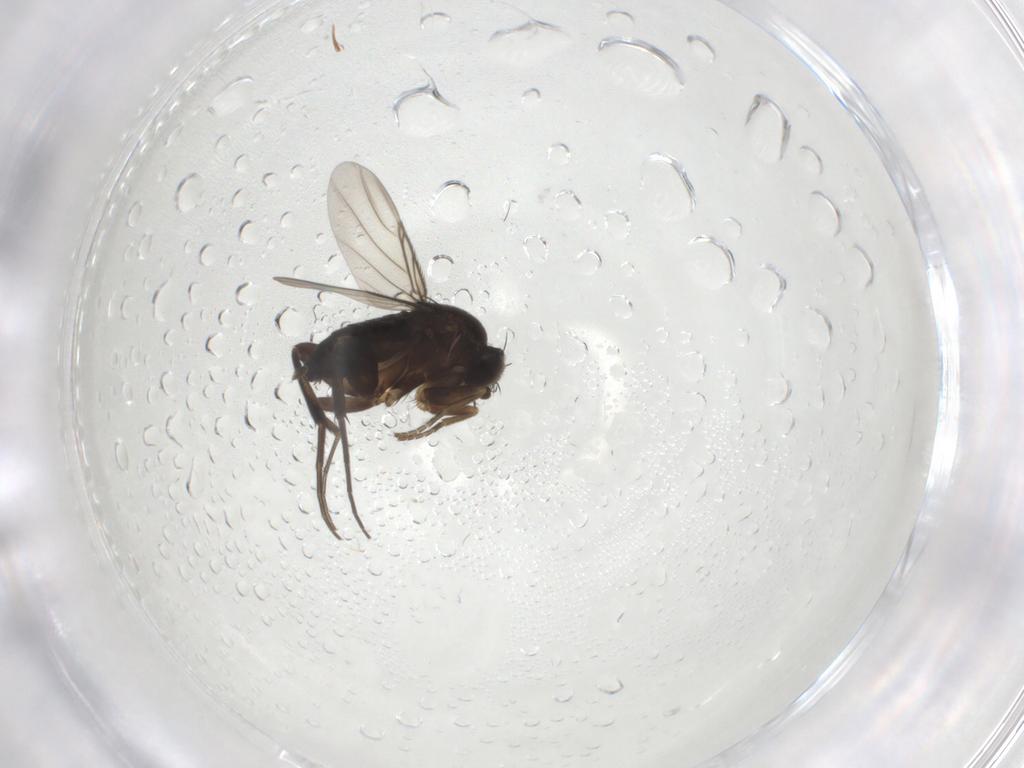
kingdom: Animalia
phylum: Arthropoda
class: Insecta
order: Diptera
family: Phoridae
